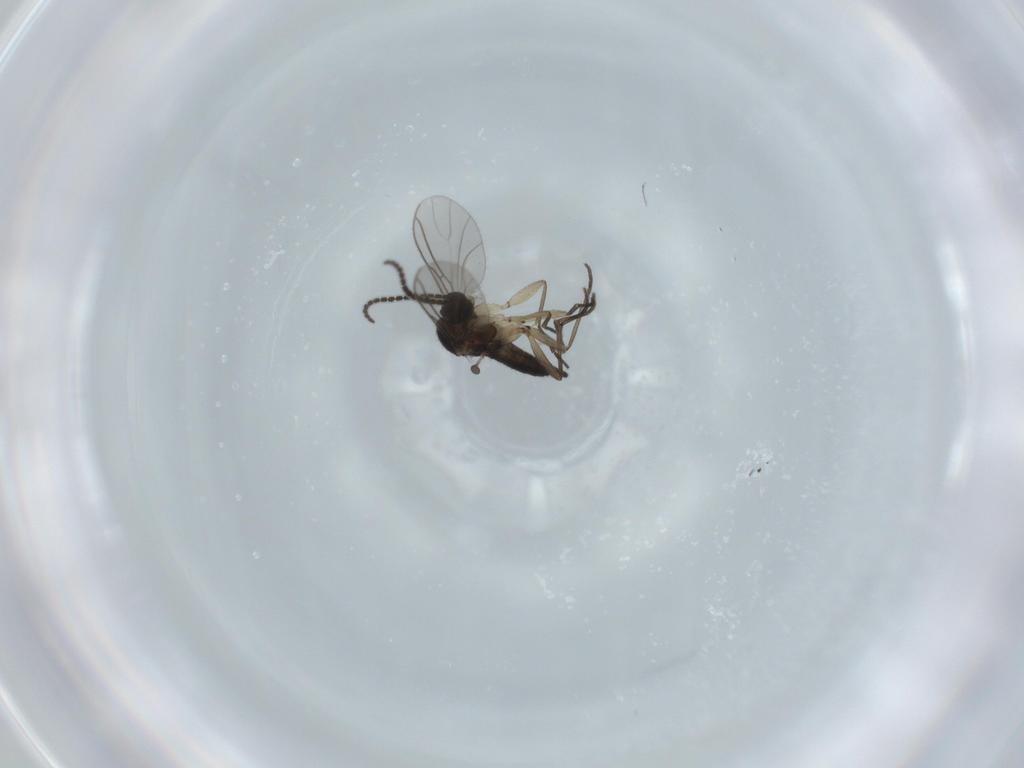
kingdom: Animalia
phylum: Arthropoda
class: Insecta
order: Diptera
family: Sciaridae
